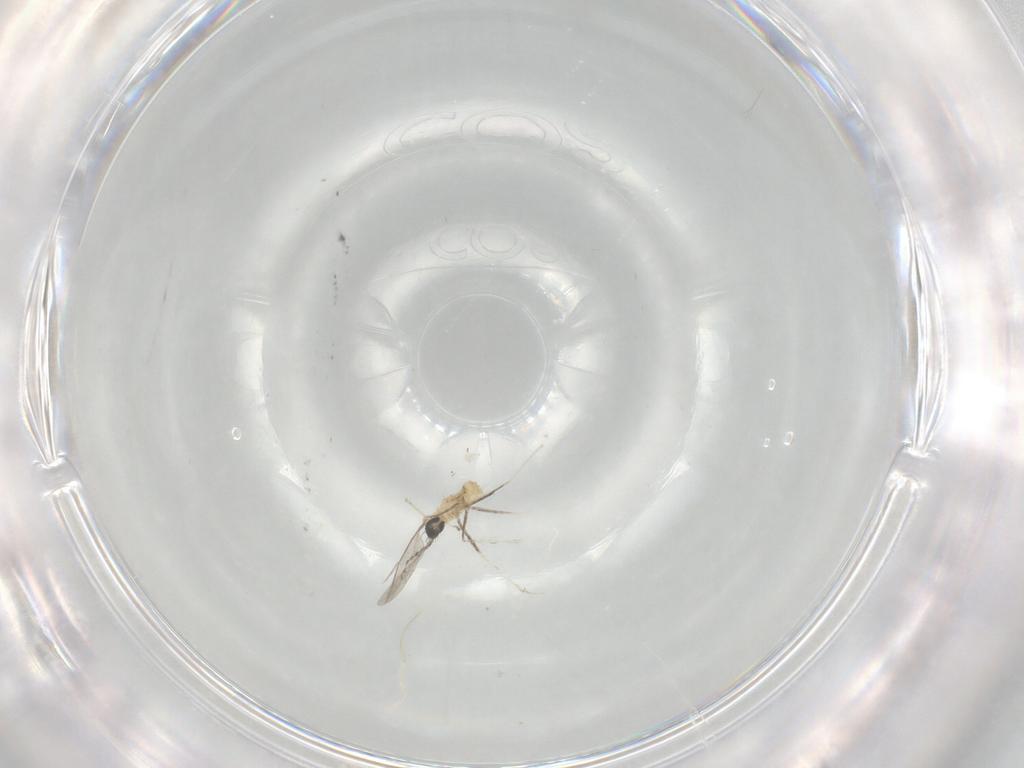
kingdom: Animalia
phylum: Arthropoda
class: Insecta
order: Diptera
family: Cecidomyiidae
